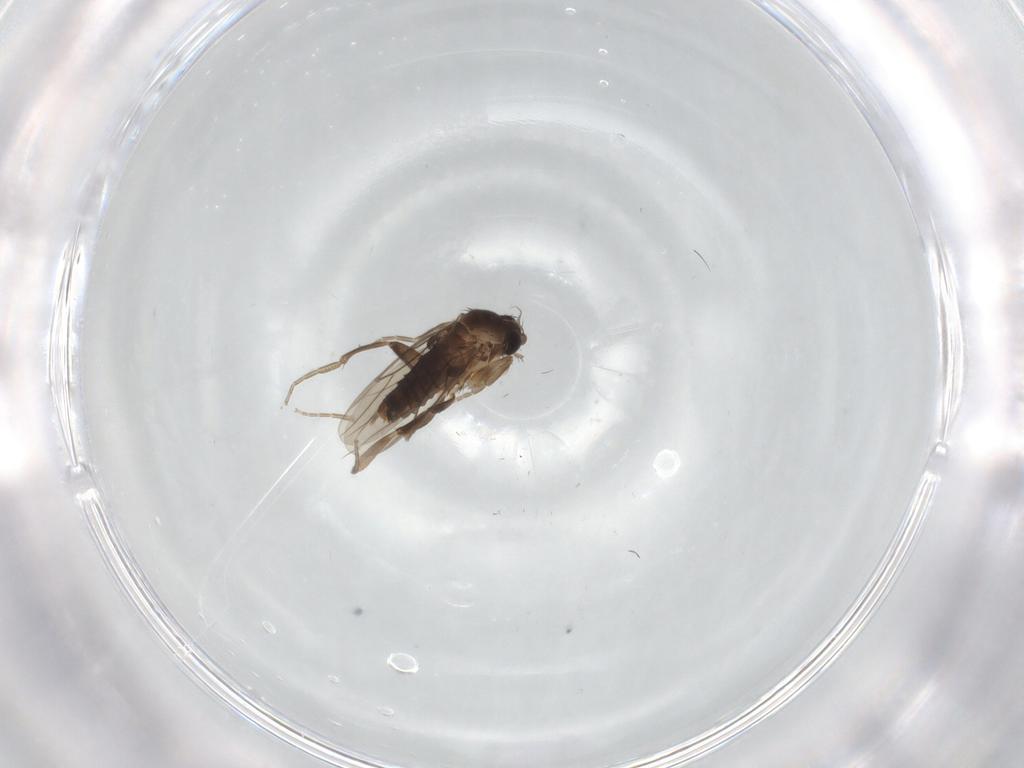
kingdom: Animalia
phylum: Arthropoda
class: Insecta
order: Diptera
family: Phoridae
